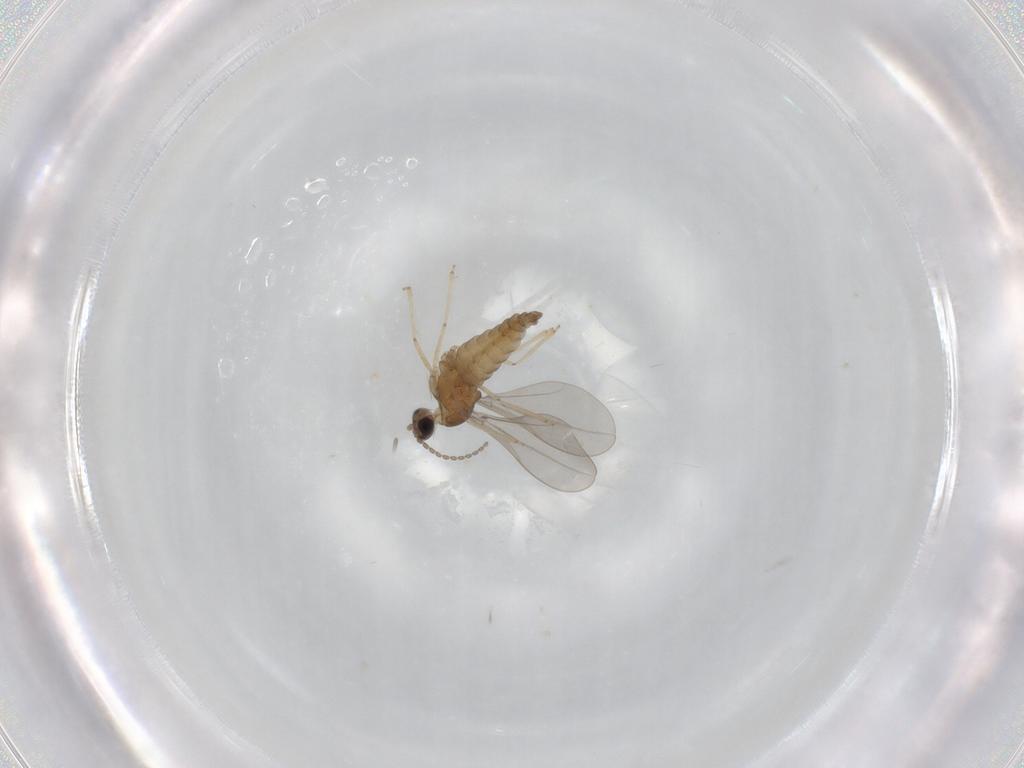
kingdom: Animalia
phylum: Arthropoda
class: Insecta
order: Diptera
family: Cecidomyiidae
